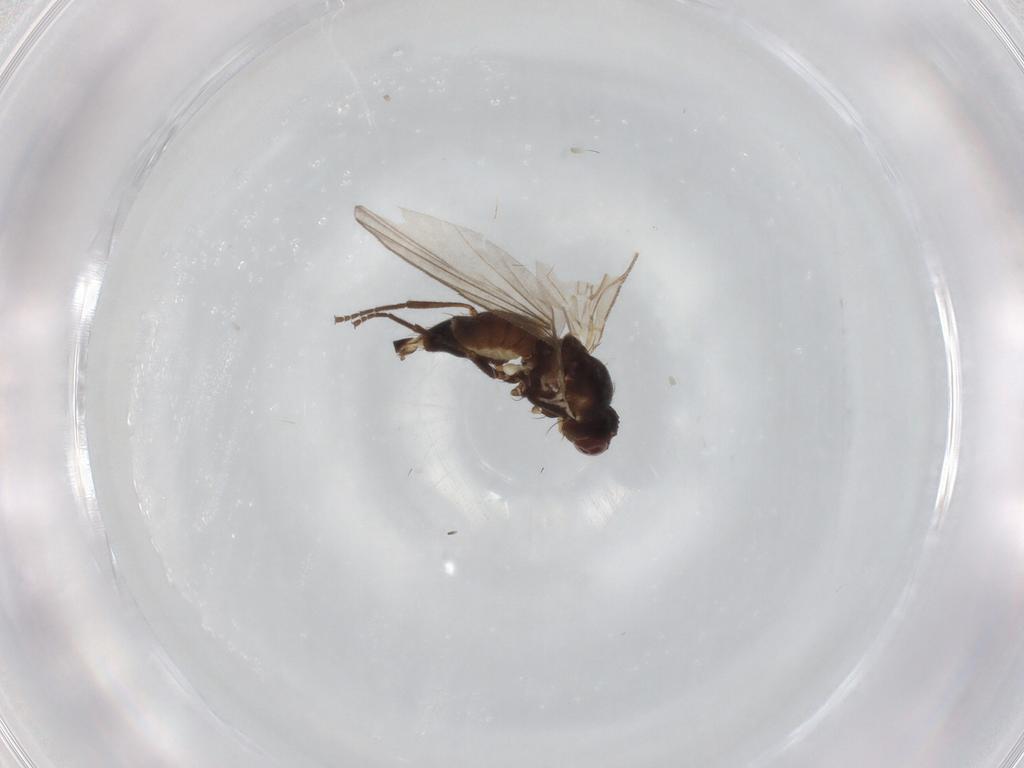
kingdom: Animalia
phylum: Arthropoda
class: Insecta
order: Diptera
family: Agromyzidae
